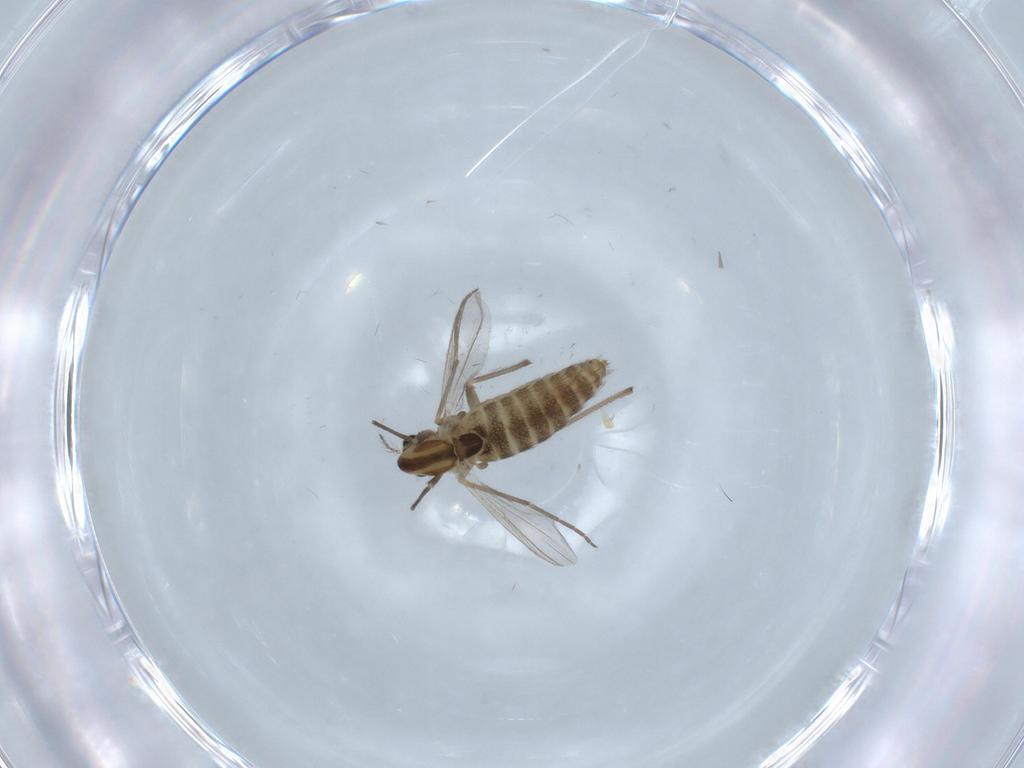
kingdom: Animalia
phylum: Arthropoda
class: Insecta
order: Diptera
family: Chironomidae
